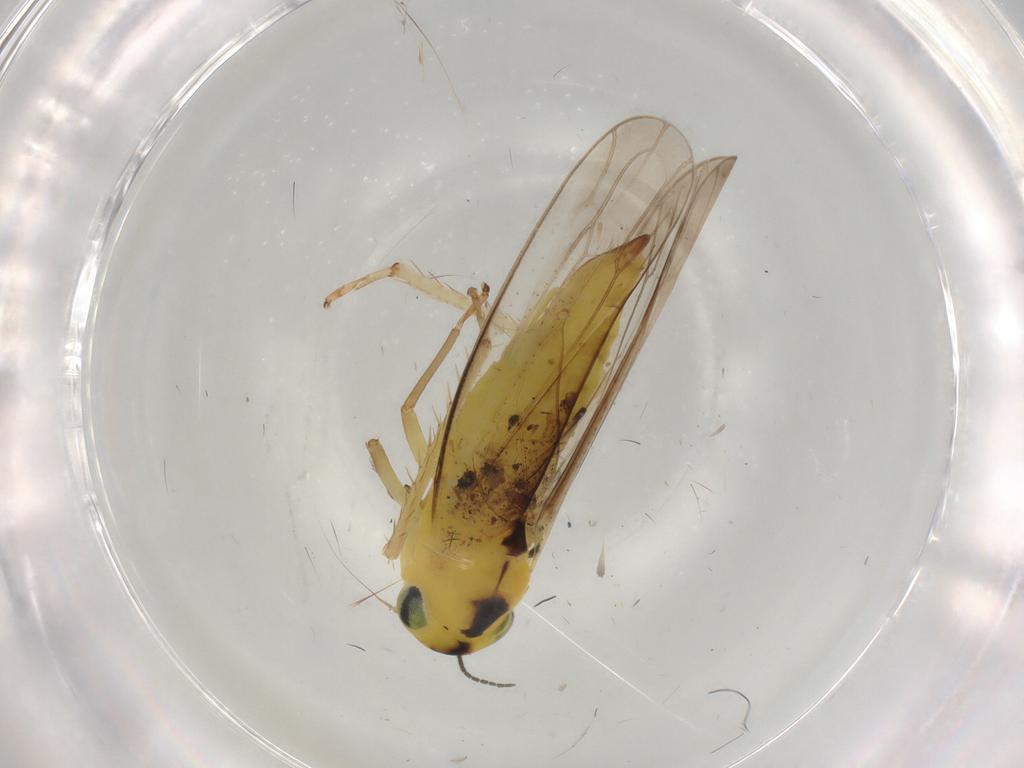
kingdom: Animalia
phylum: Arthropoda
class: Insecta
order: Neuroptera
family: Hemerobiidae
